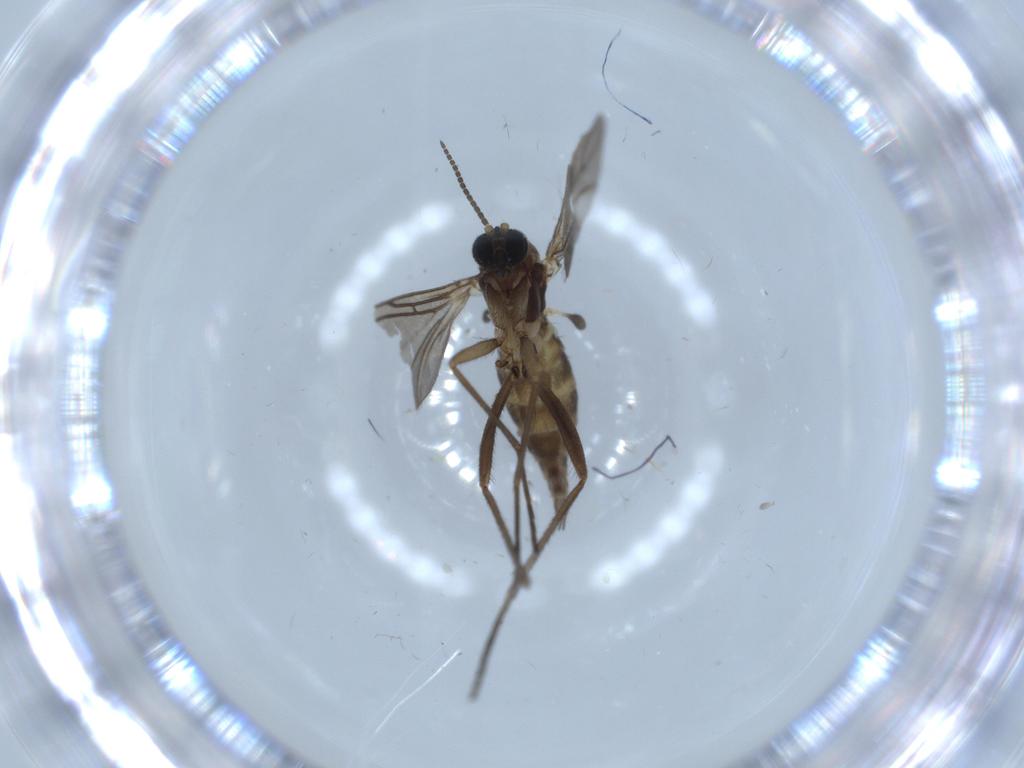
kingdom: Animalia
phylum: Arthropoda
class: Insecta
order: Diptera
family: Sciaridae
